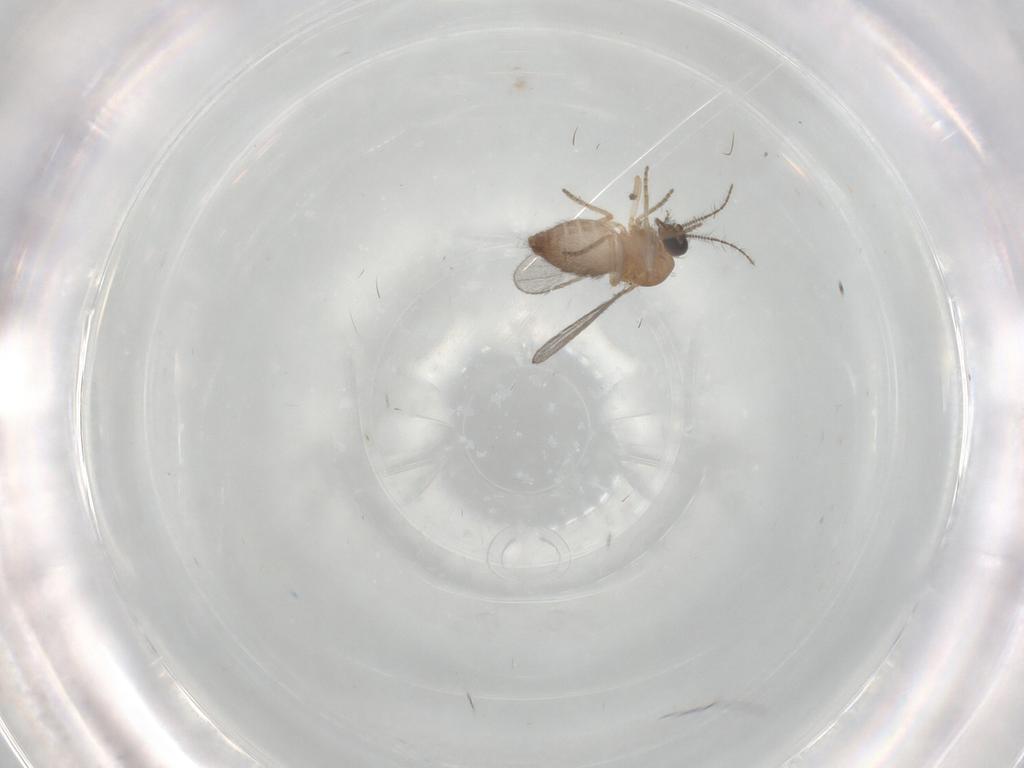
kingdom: Animalia
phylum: Arthropoda
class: Insecta
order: Diptera
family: Ceratopogonidae
